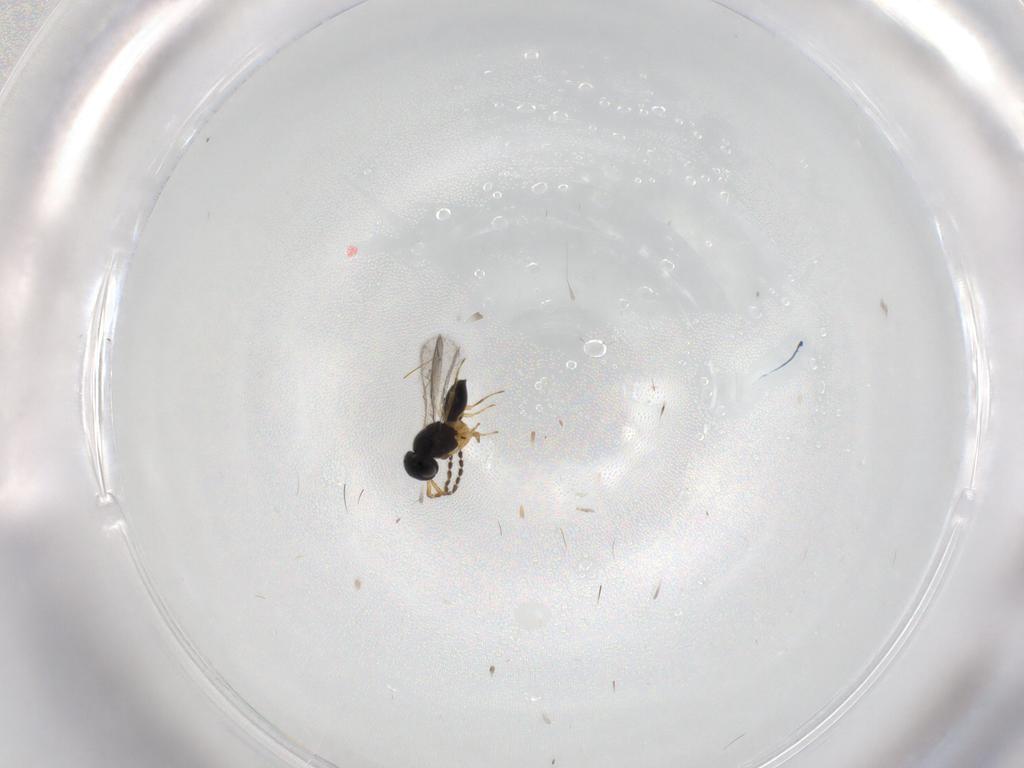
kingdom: Animalia
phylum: Arthropoda
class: Insecta
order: Hymenoptera
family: Scelionidae
